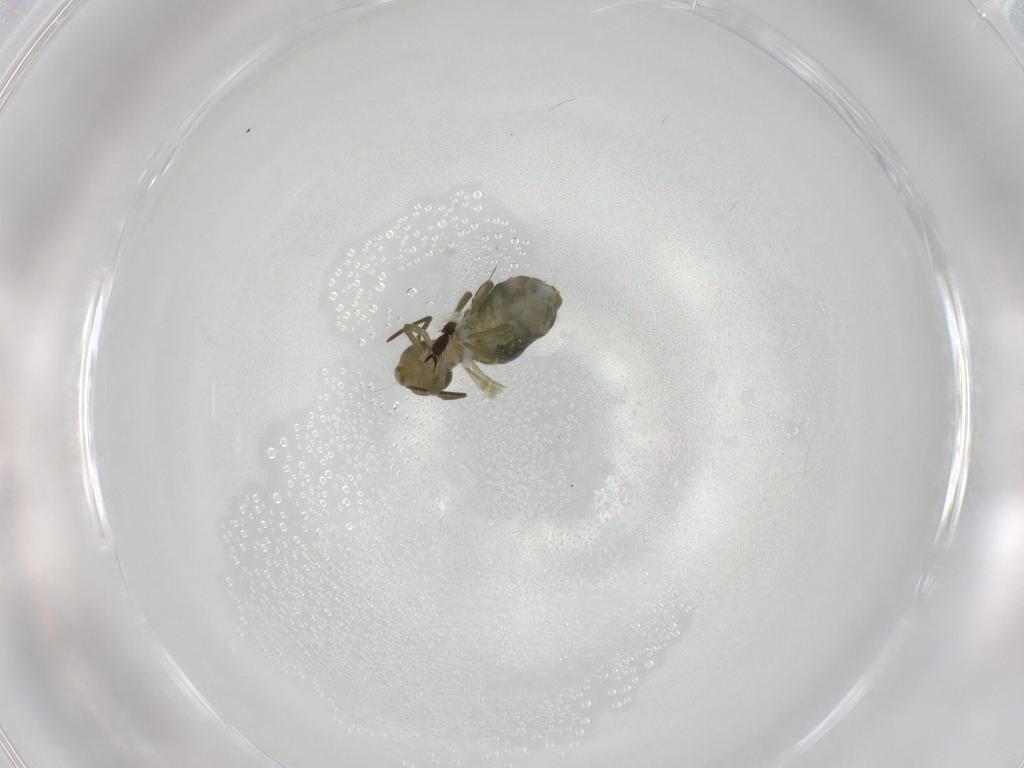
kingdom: Animalia
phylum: Arthropoda
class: Collembola
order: Symphypleona
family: Sminthuridae
